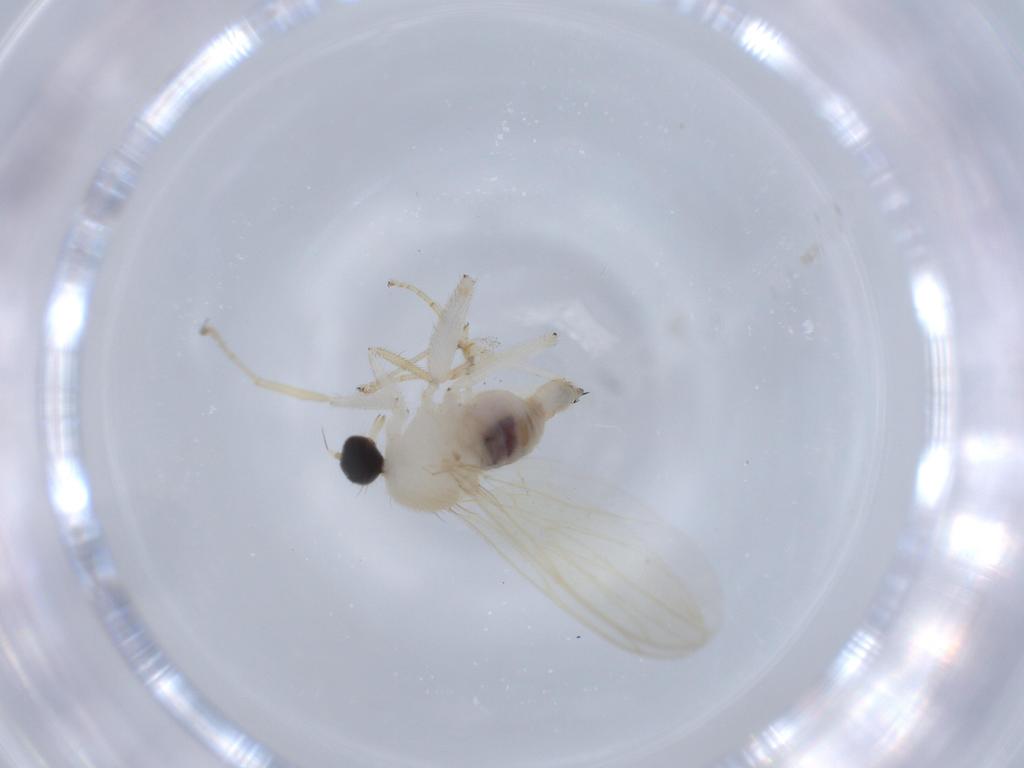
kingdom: Animalia
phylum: Arthropoda
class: Insecta
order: Diptera
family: Hybotidae
